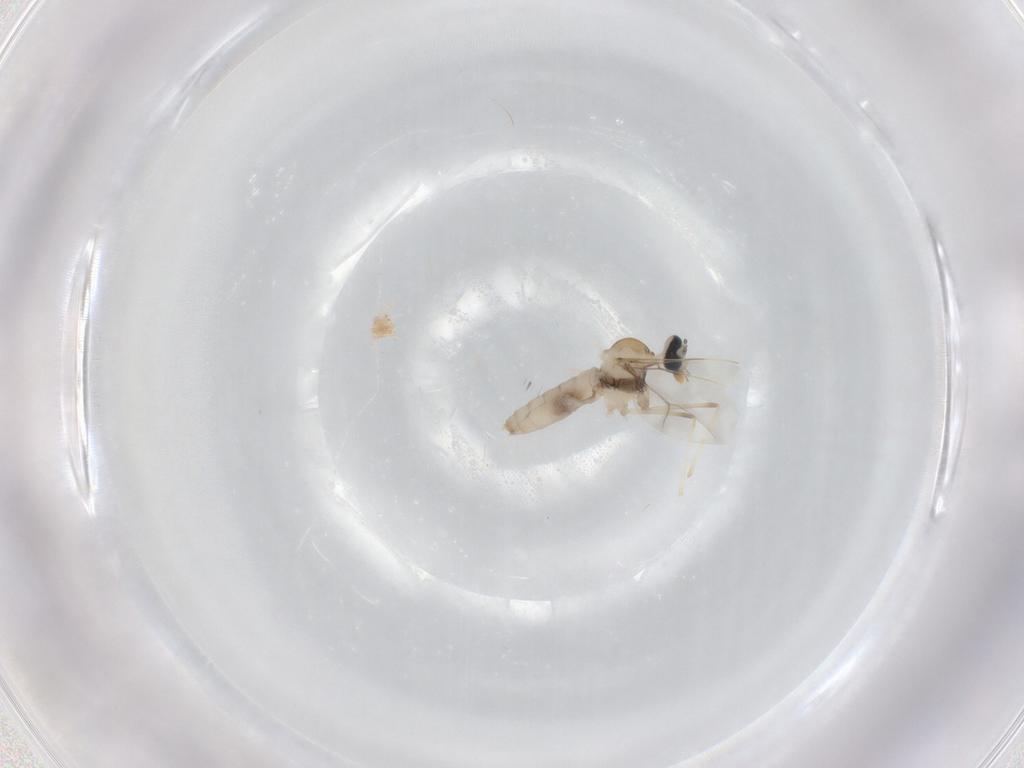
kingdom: Animalia
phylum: Arthropoda
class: Insecta
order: Diptera
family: Cecidomyiidae
